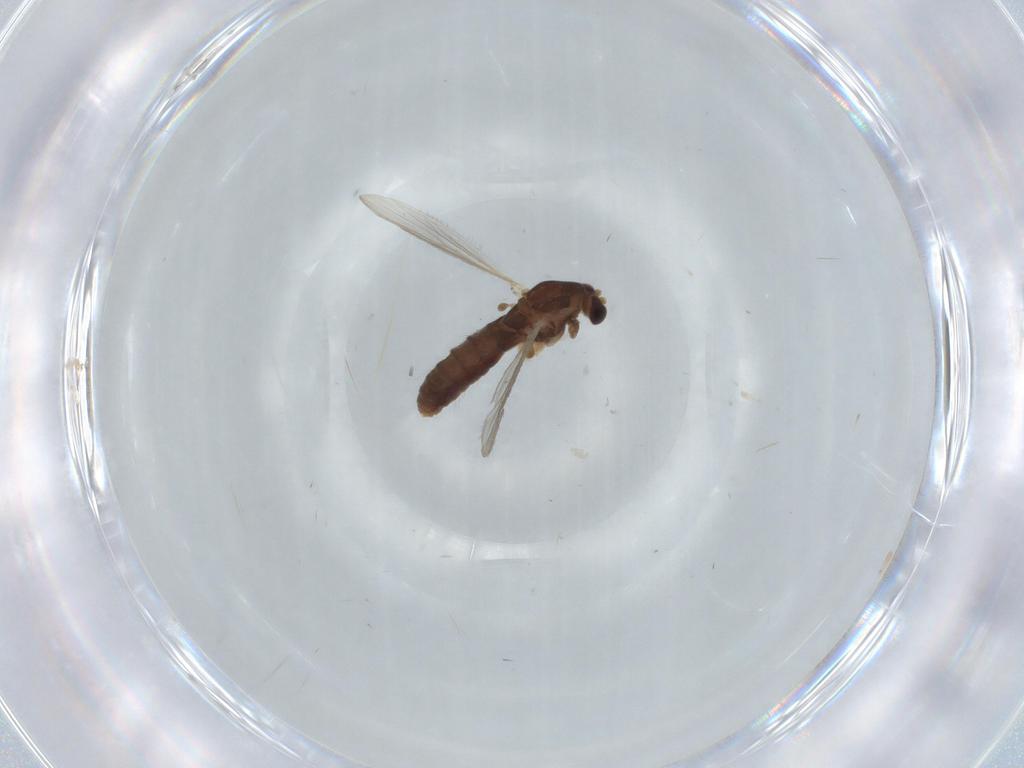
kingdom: Animalia
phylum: Arthropoda
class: Insecta
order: Diptera
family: Chironomidae
